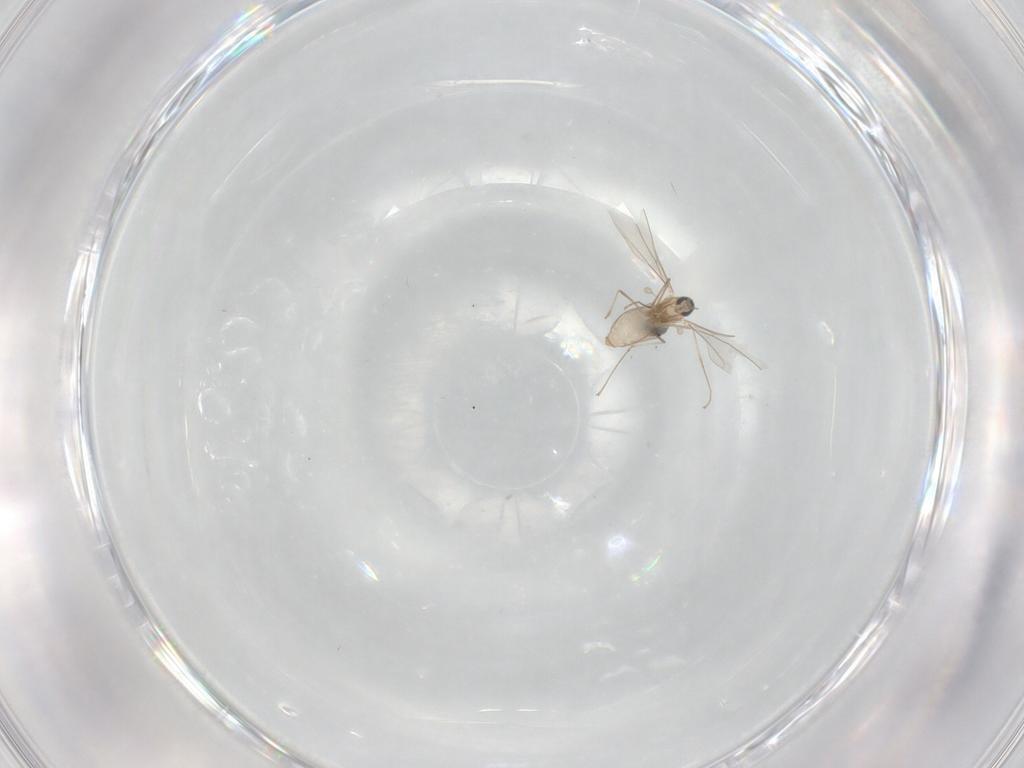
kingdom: Animalia
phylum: Arthropoda
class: Insecta
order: Diptera
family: Cecidomyiidae
